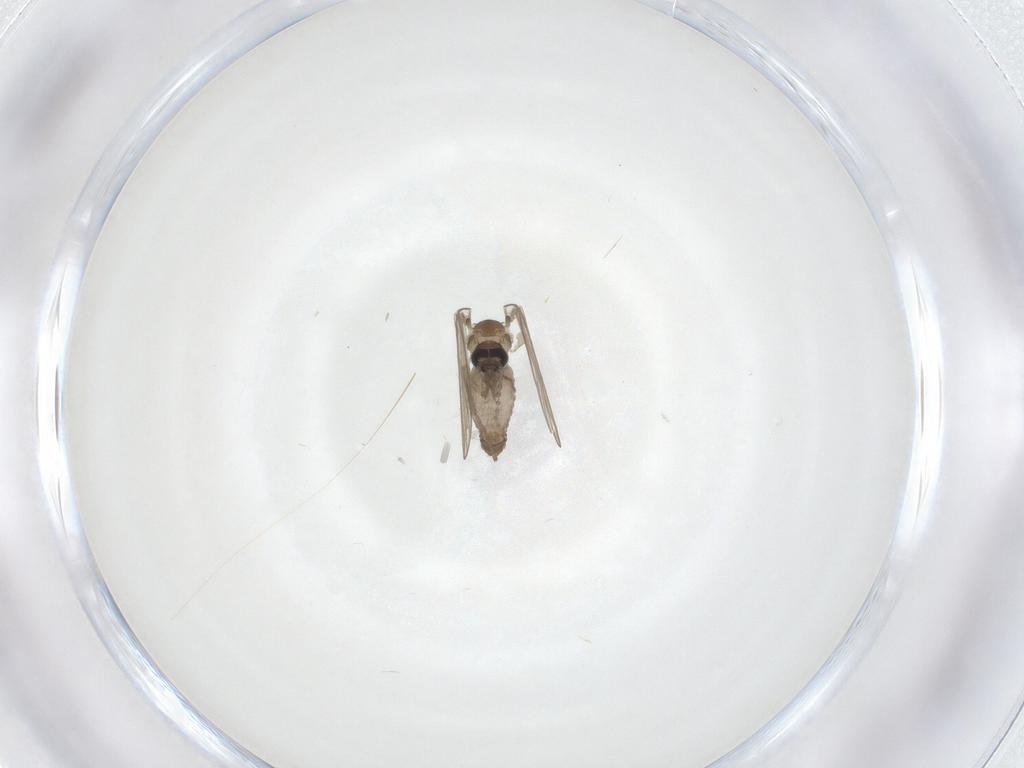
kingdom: Animalia
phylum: Arthropoda
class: Insecta
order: Diptera
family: Psychodidae
